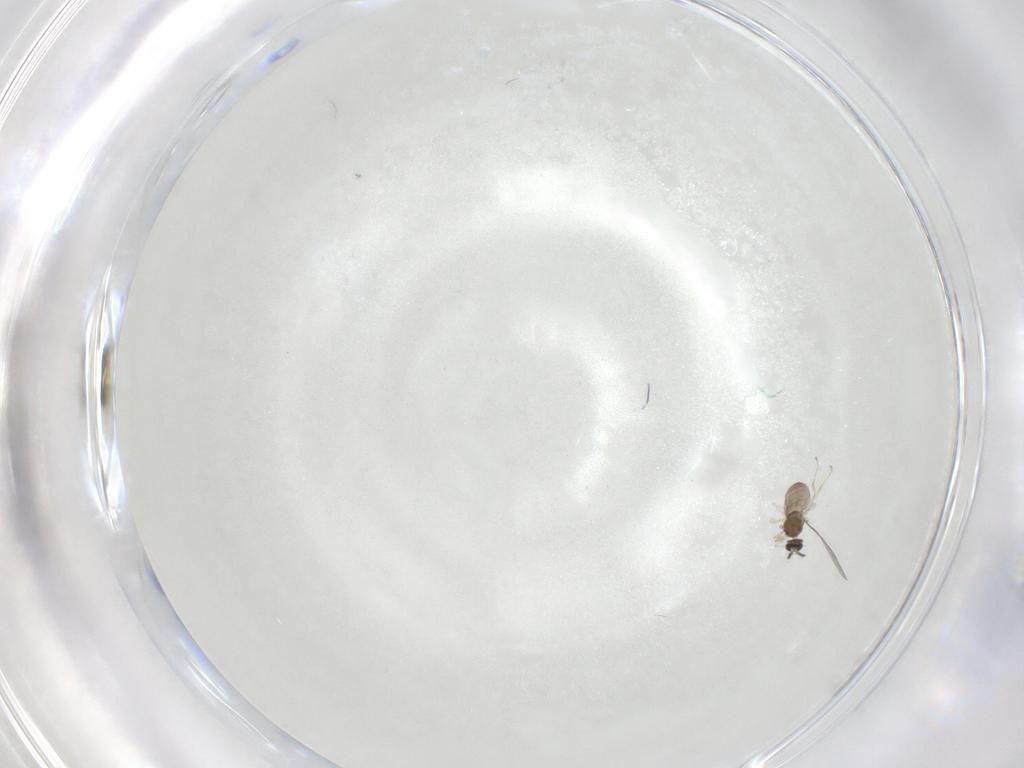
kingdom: Animalia
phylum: Arthropoda
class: Insecta
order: Diptera
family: Cecidomyiidae
